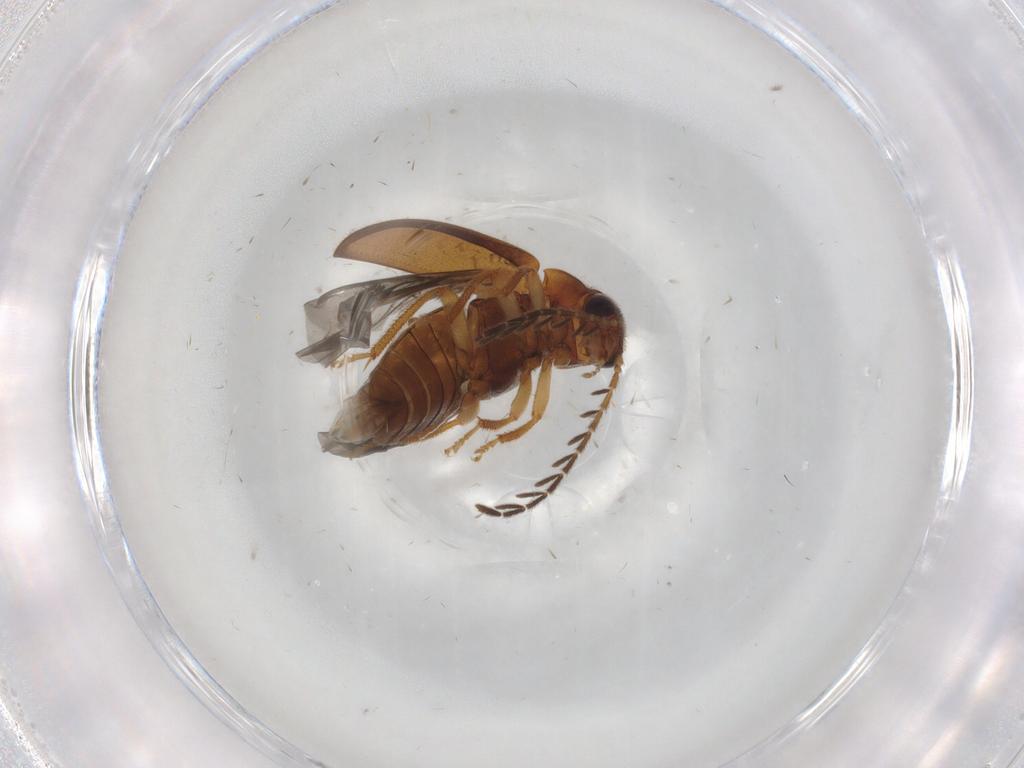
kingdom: Animalia
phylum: Arthropoda
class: Insecta
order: Coleoptera
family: Ptilodactylidae
